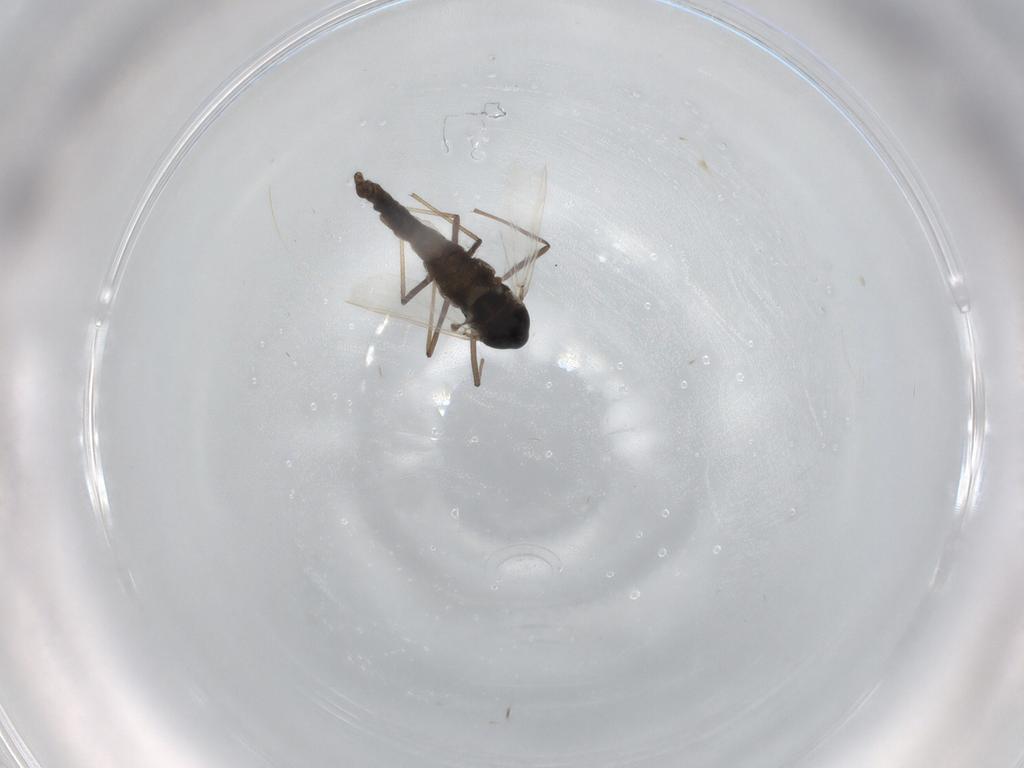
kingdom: Animalia
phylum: Arthropoda
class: Insecta
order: Diptera
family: Chironomidae
